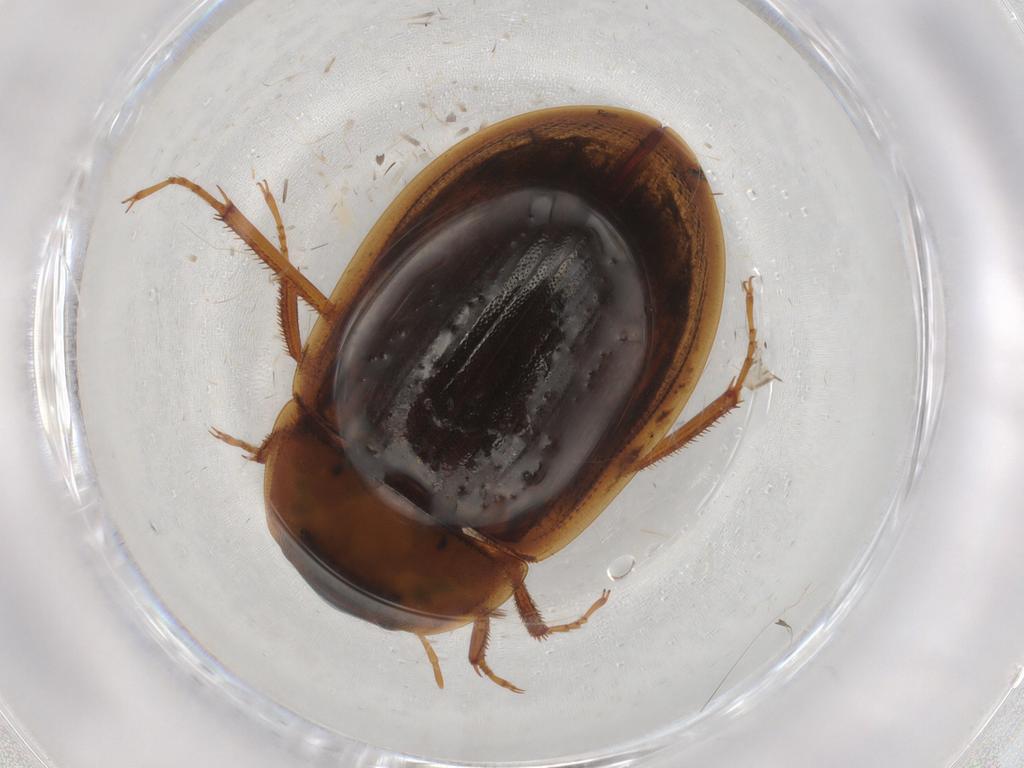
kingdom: Animalia
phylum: Arthropoda
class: Insecta
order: Coleoptera
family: Hydrophilidae
